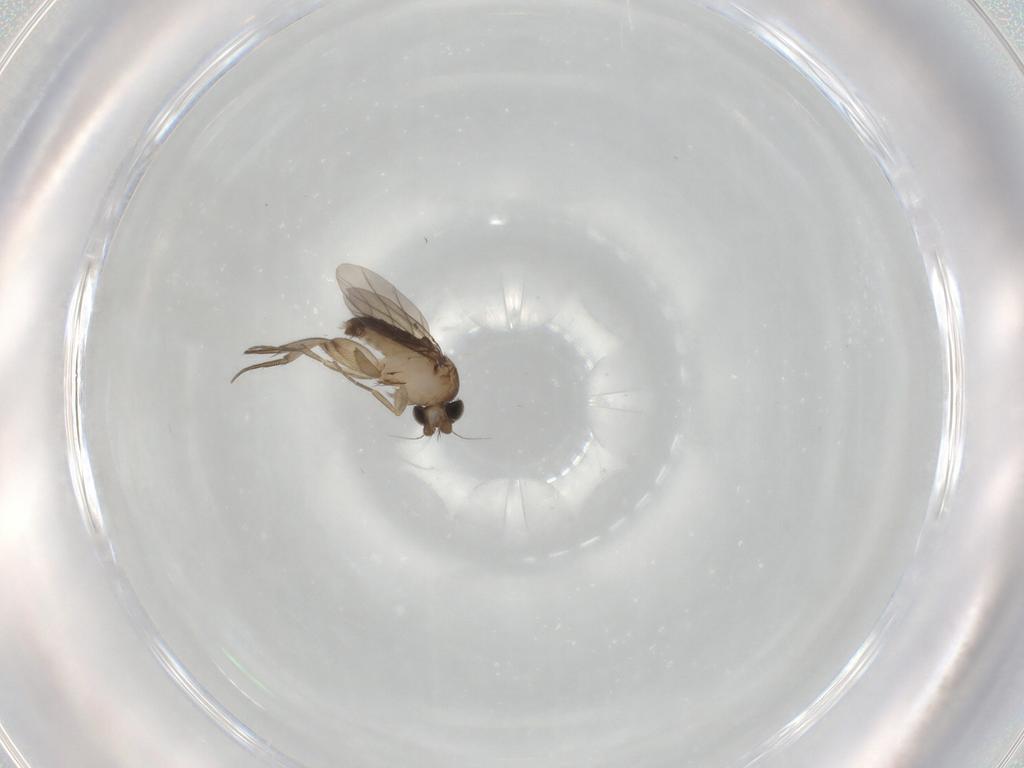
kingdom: Animalia
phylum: Arthropoda
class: Insecta
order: Diptera
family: Phoridae
